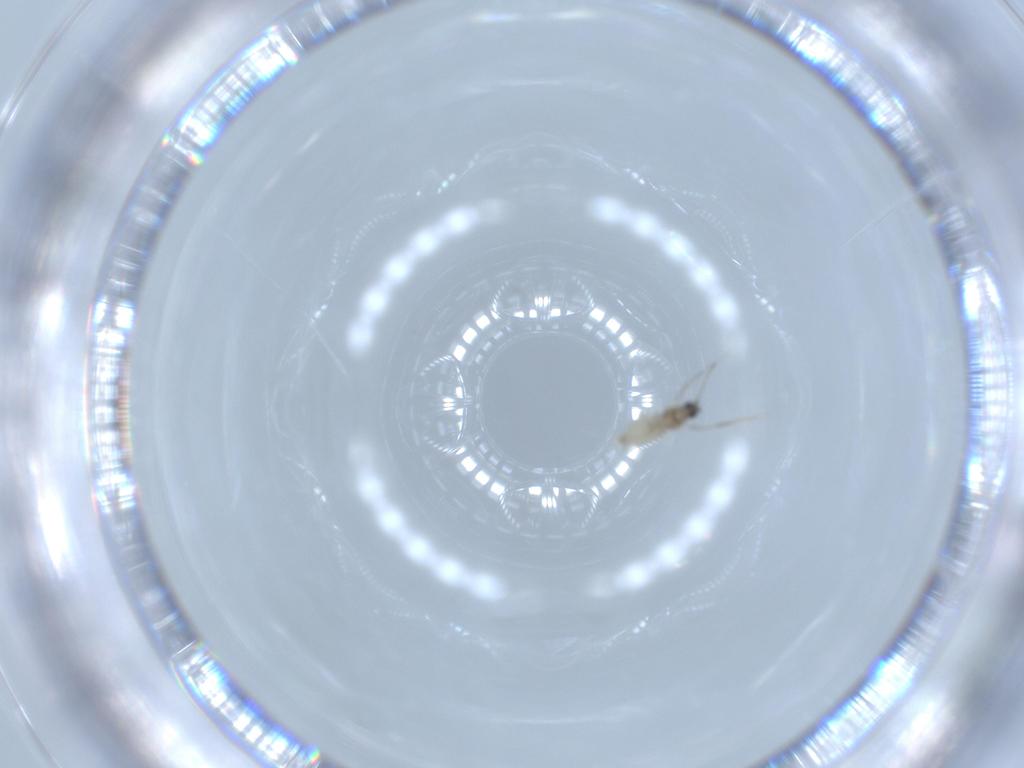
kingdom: Animalia
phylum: Arthropoda
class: Insecta
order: Diptera
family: Cecidomyiidae
